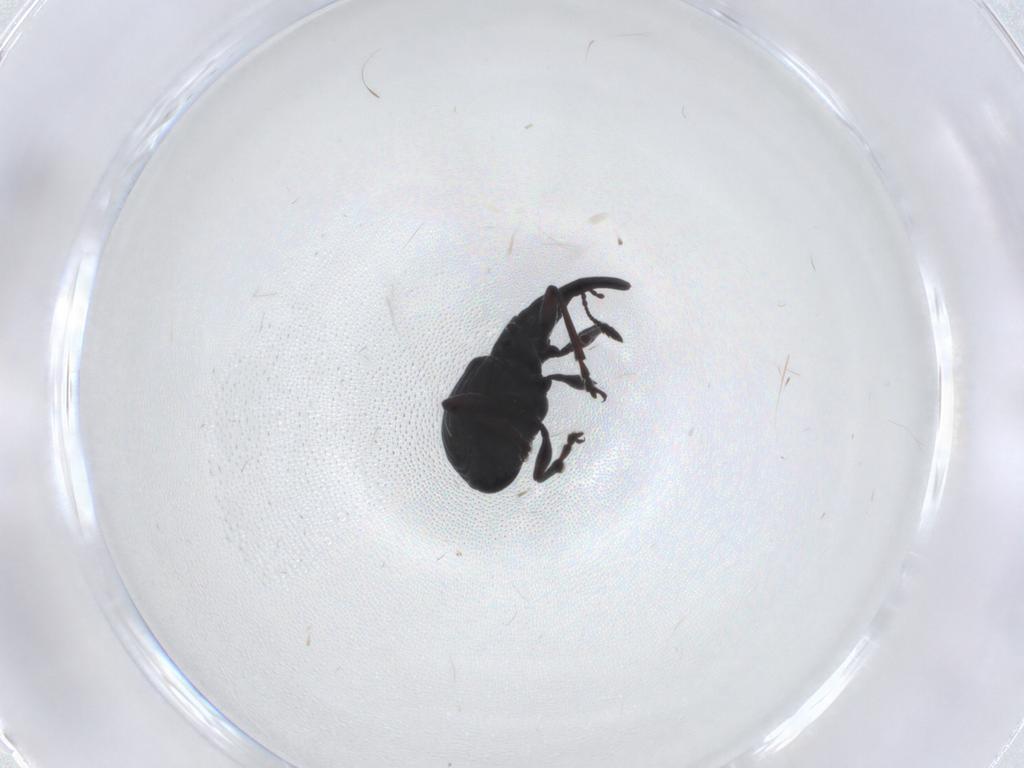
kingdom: Animalia
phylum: Arthropoda
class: Insecta
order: Coleoptera
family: Brentidae
